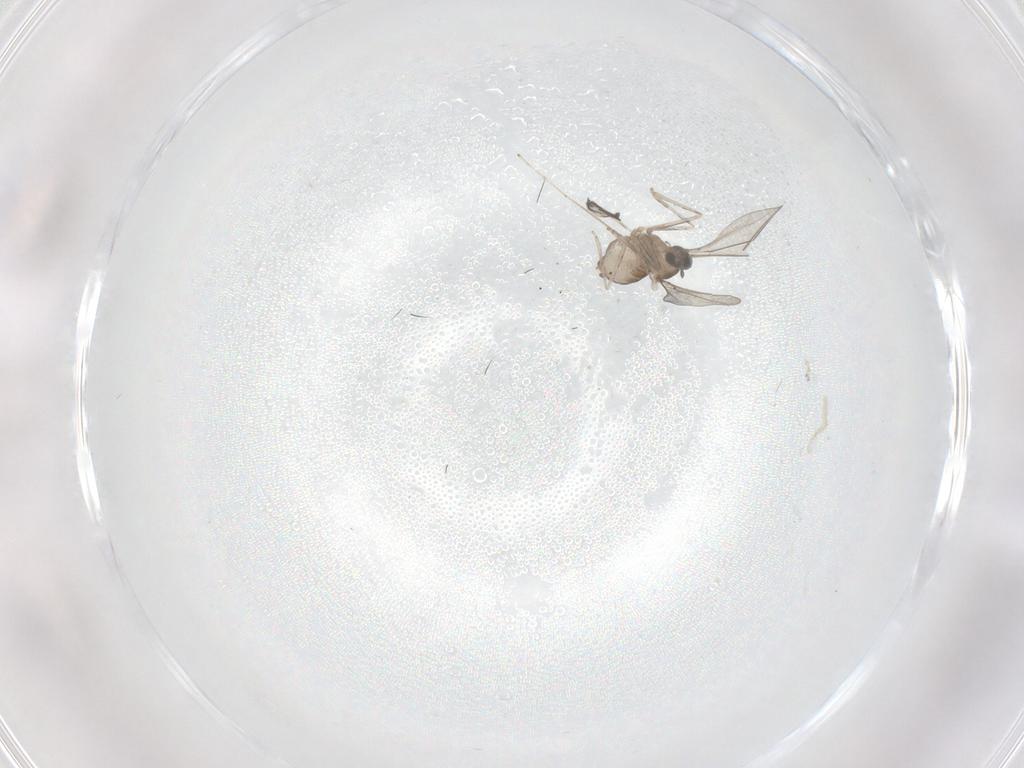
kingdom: Animalia
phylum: Arthropoda
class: Insecta
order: Diptera
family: Cecidomyiidae
